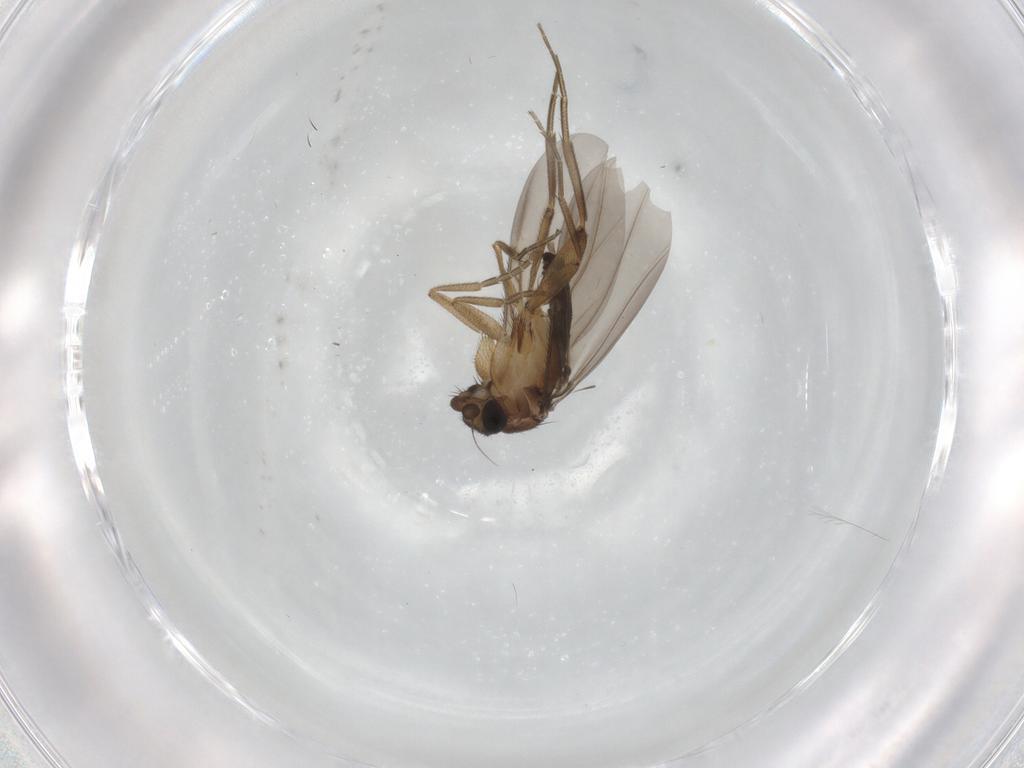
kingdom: Animalia
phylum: Arthropoda
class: Insecta
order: Diptera
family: Phoridae
